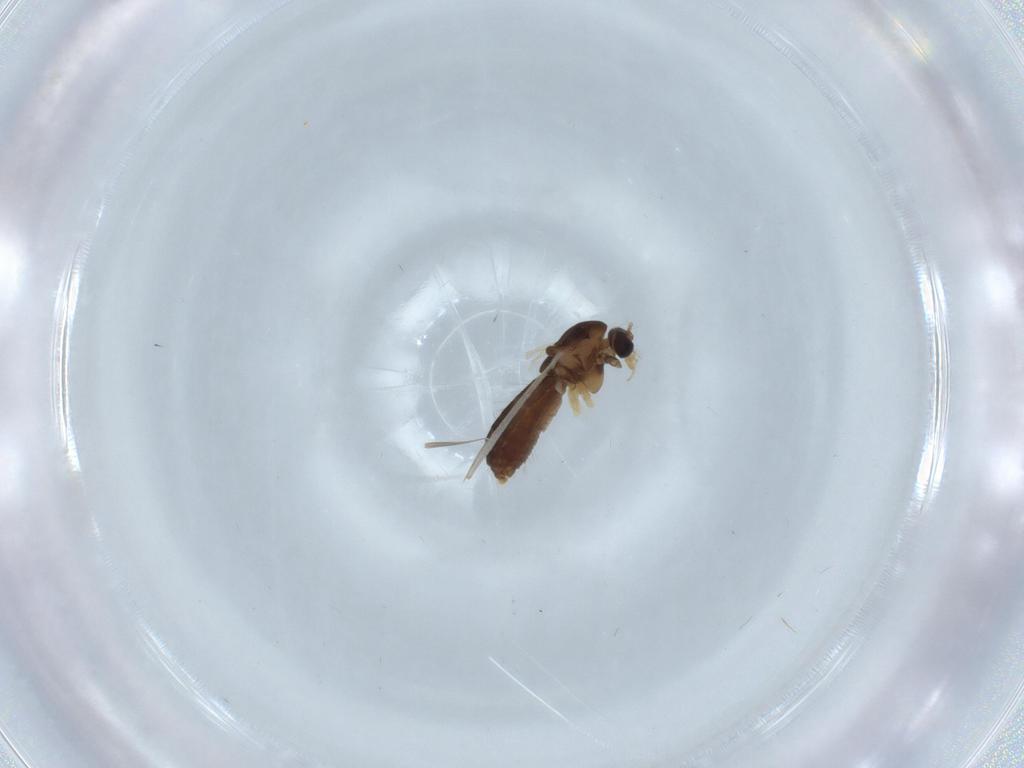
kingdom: Animalia
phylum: Arthropoda
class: Insecta
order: Diptera
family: Chironomidae
